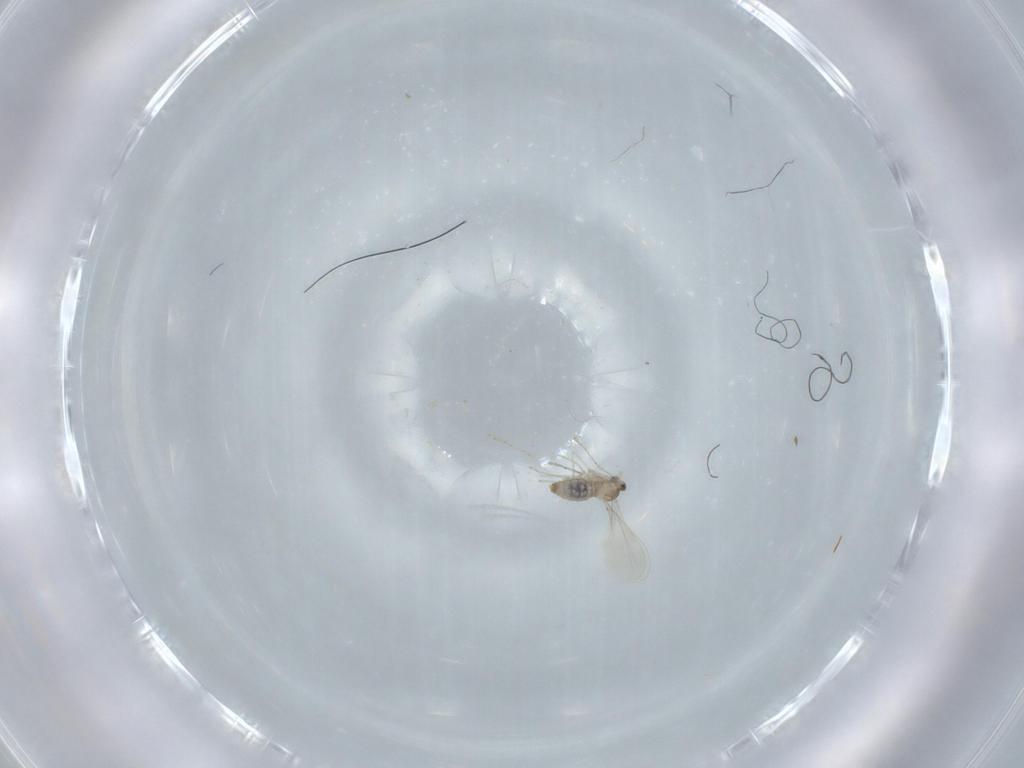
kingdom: Animalia
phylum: Arthropoda
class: Insecta
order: Diptera
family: Cecidomyiidae
